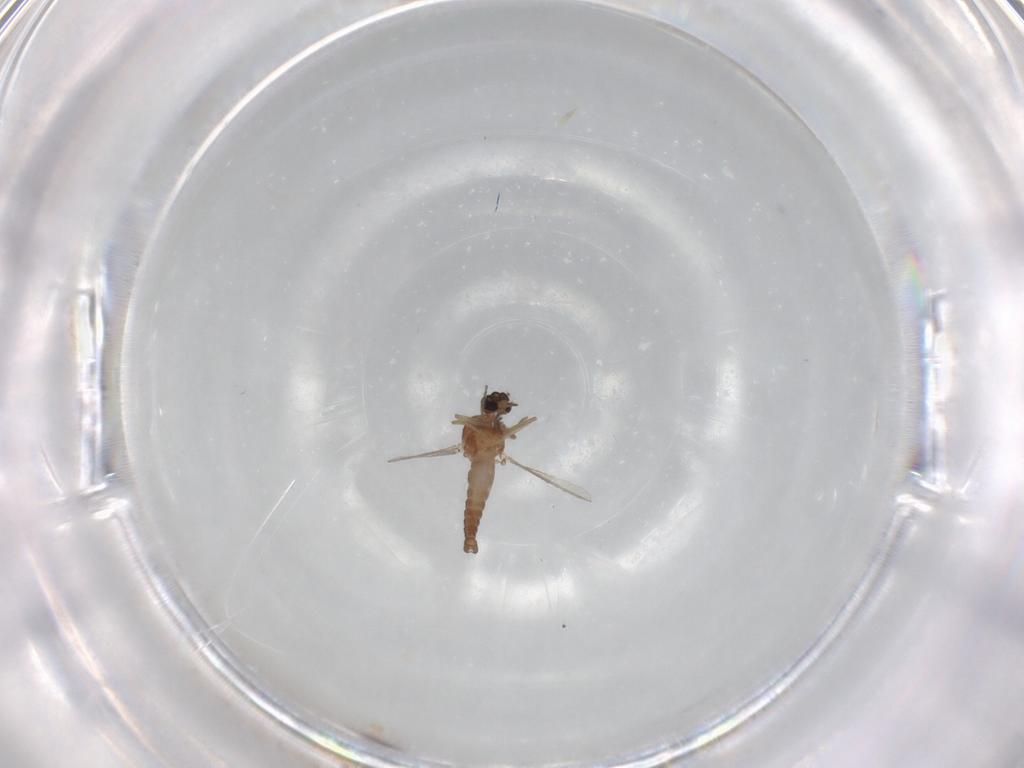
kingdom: Animalia
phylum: Arthropoda
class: Insecta
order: Diptera
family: Ceratopogonidae
